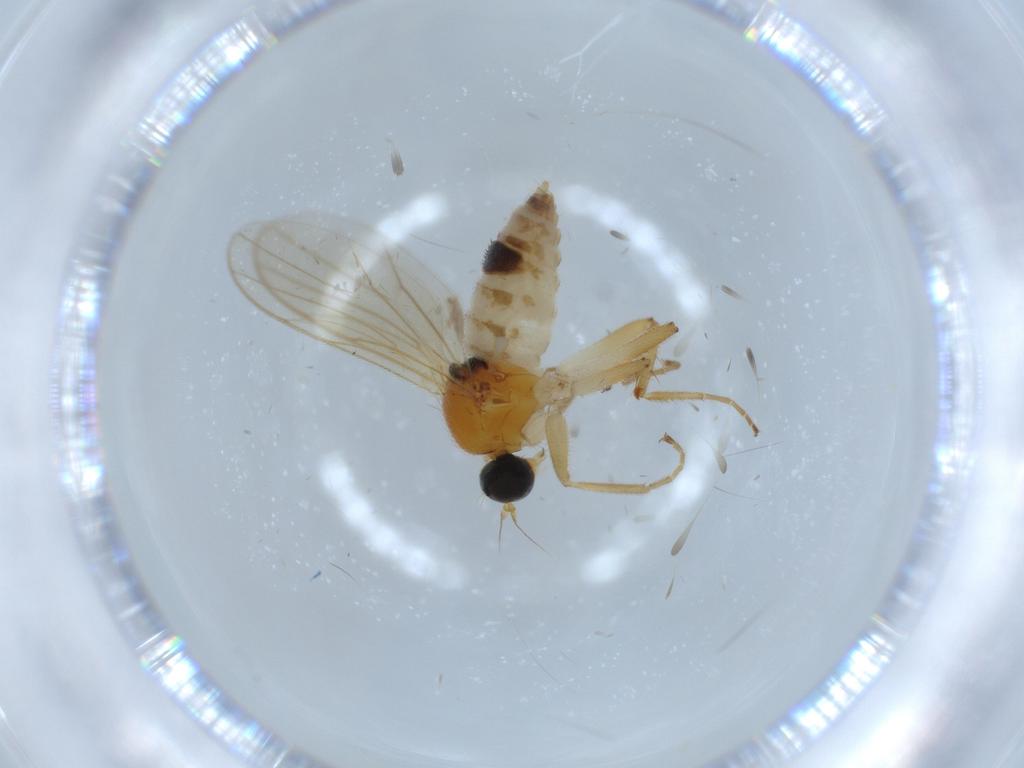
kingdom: Animalia
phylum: Arthropoda
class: Insecta
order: Diptera
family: Hybotidae
